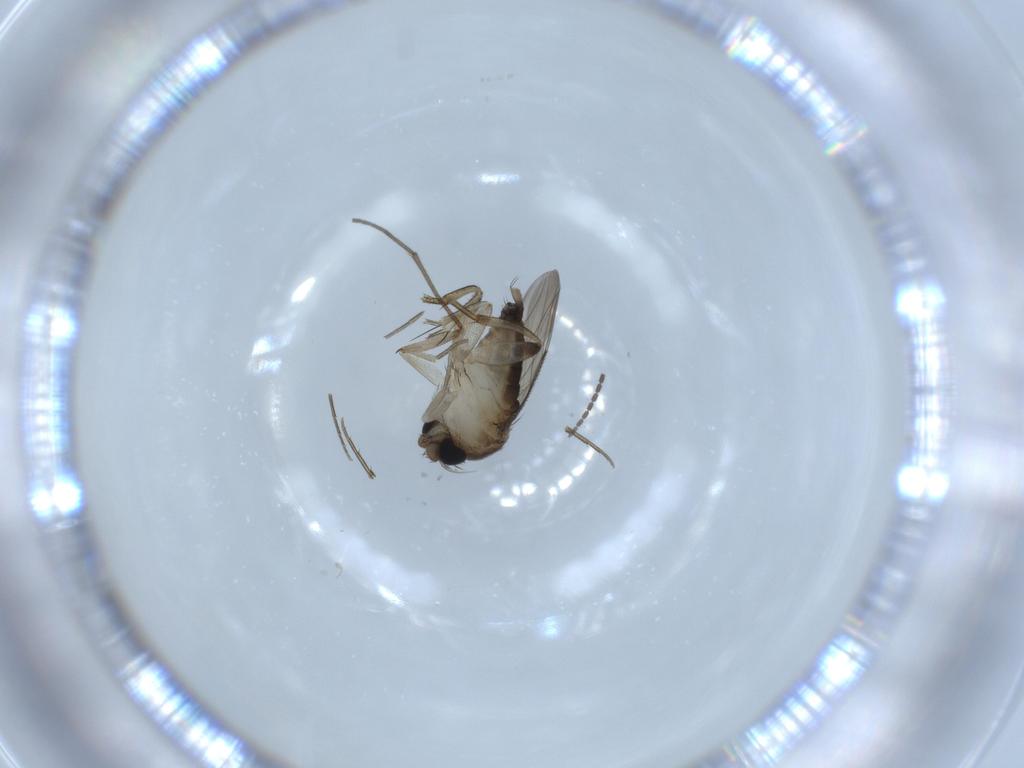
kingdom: Animalia
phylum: Arthropoda
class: Insecta
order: Diptera
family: Phoridae
